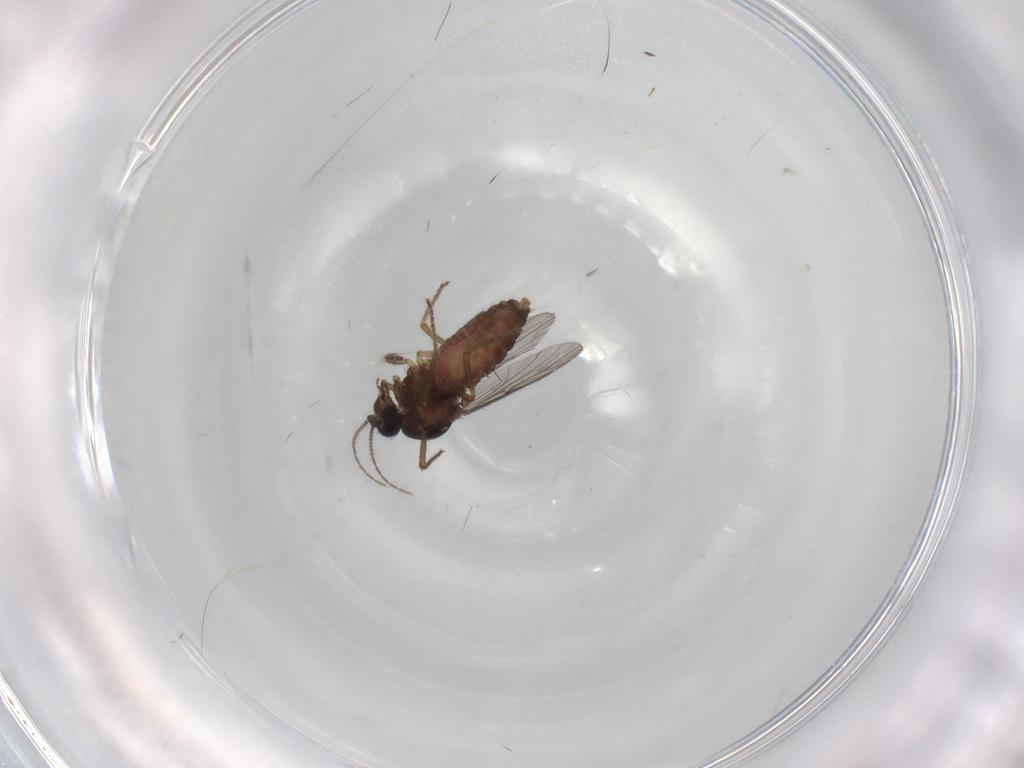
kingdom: Animalia
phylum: Arthropoda
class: Insecta
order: Diptera
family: Ceratopogonidae
